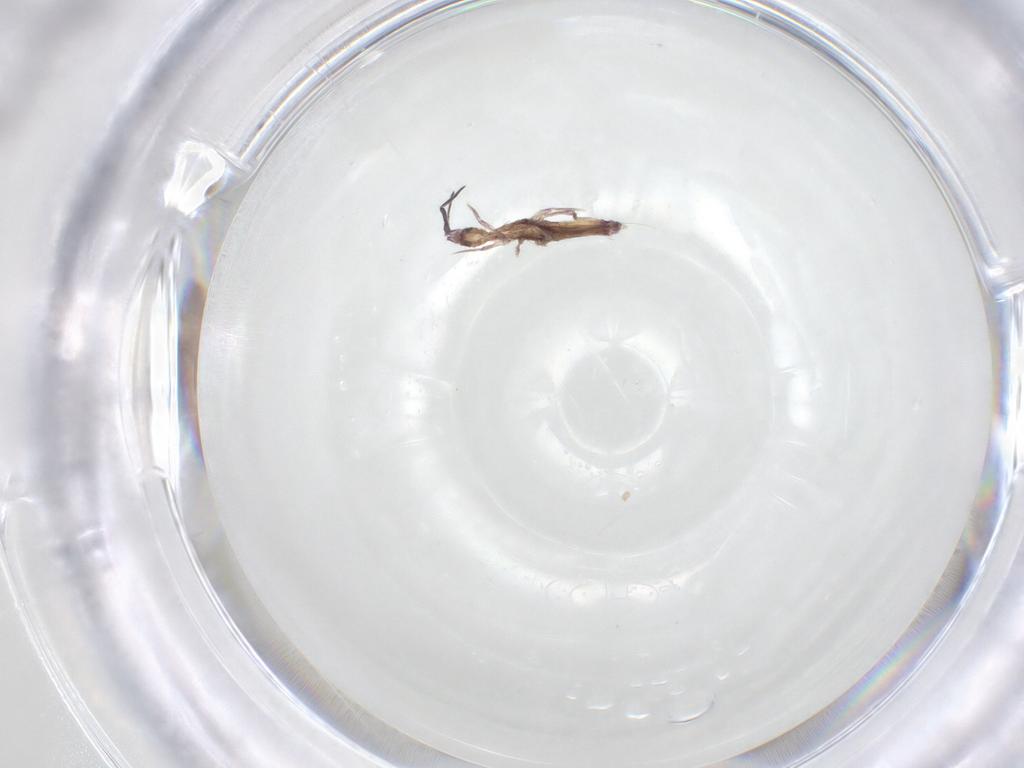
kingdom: Animalia
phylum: Arthropoda
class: Collembola
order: Entomobryomorpha
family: Entomobryidae
